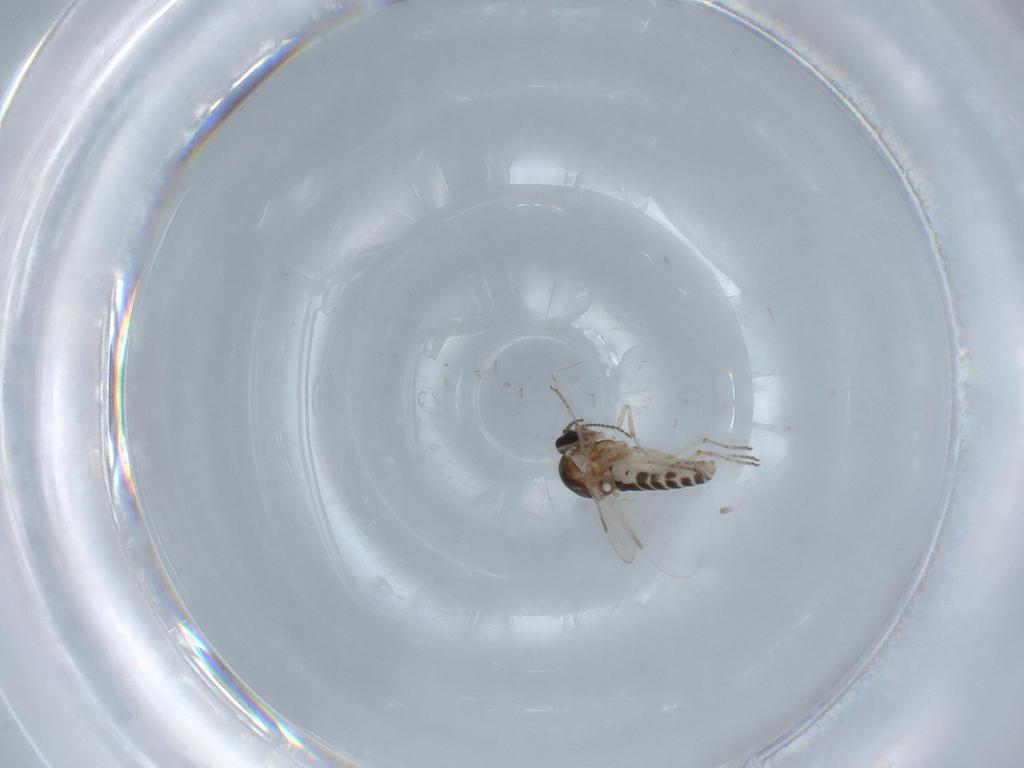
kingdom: Animalia
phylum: Arthropoda
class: Insecta
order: Diptera
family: Ceratopogonidae
